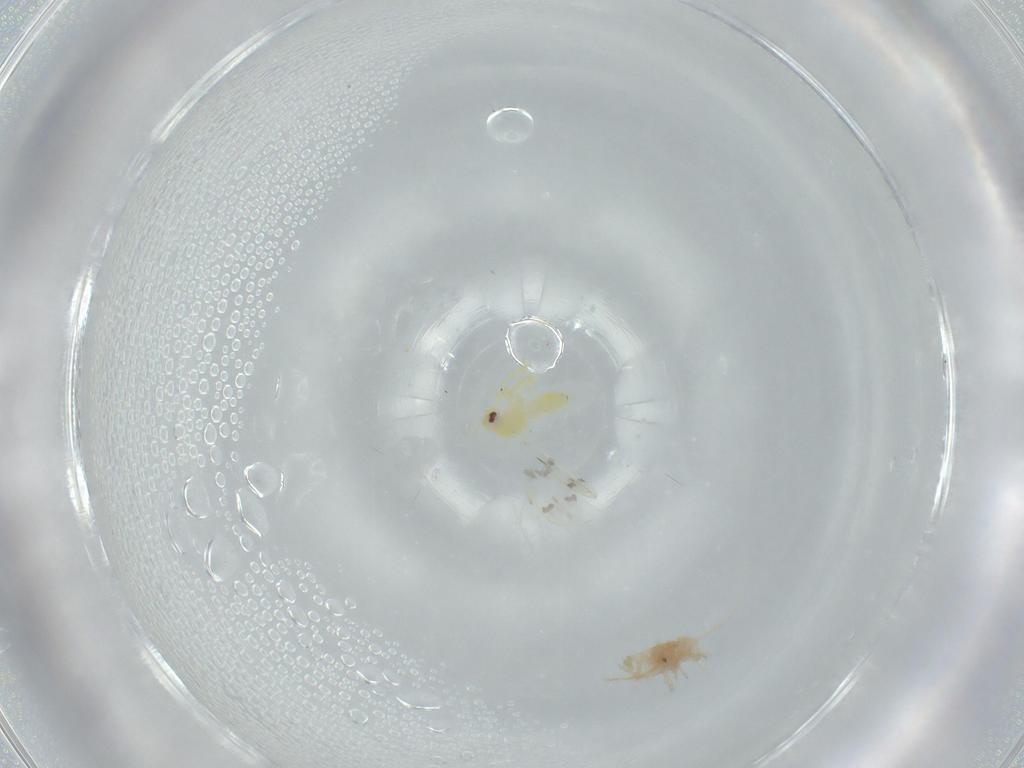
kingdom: Animalia
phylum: Arthropoda
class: Insecta
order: Hemiptera
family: Aleyrodidae
